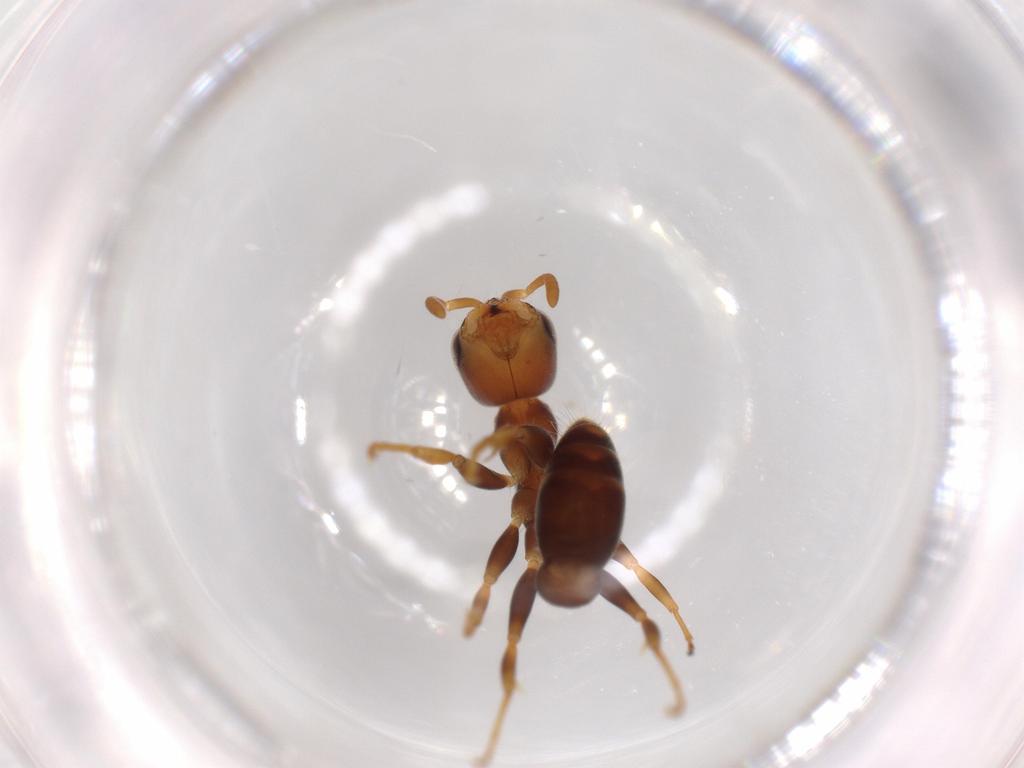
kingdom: Animalia
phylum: Arthropoda
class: Insecta
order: Hymenoptera
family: Formicidae
